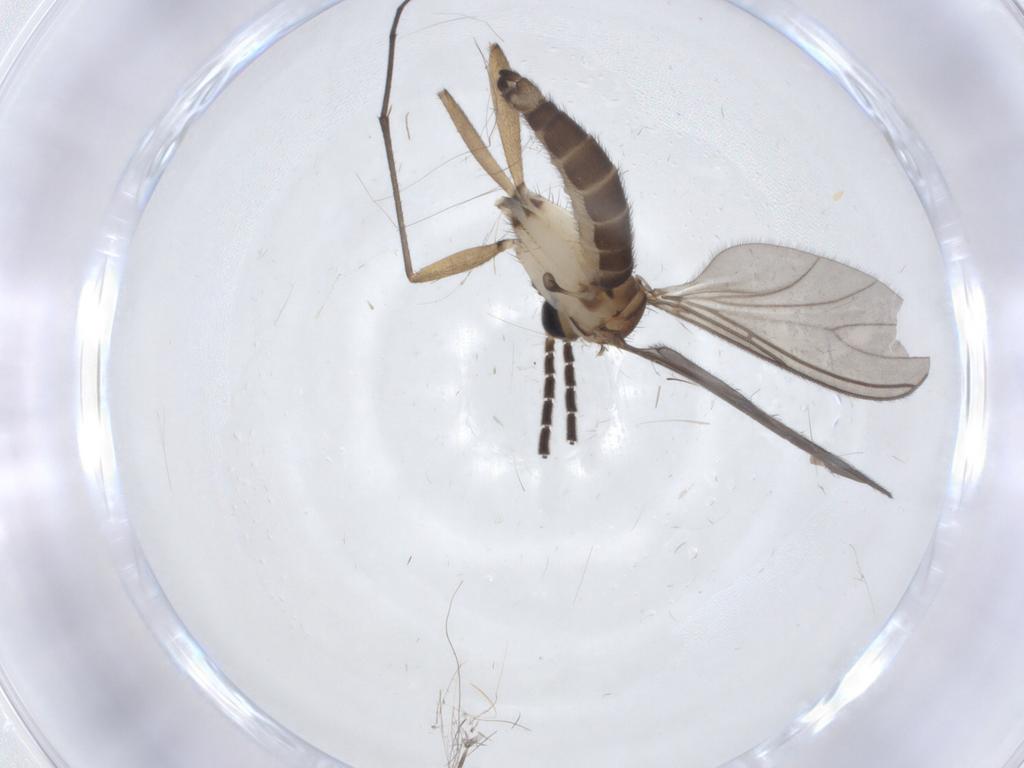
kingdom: Animalia
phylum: Arthropoda
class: Insecta
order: Diptera
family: Sciaridae
